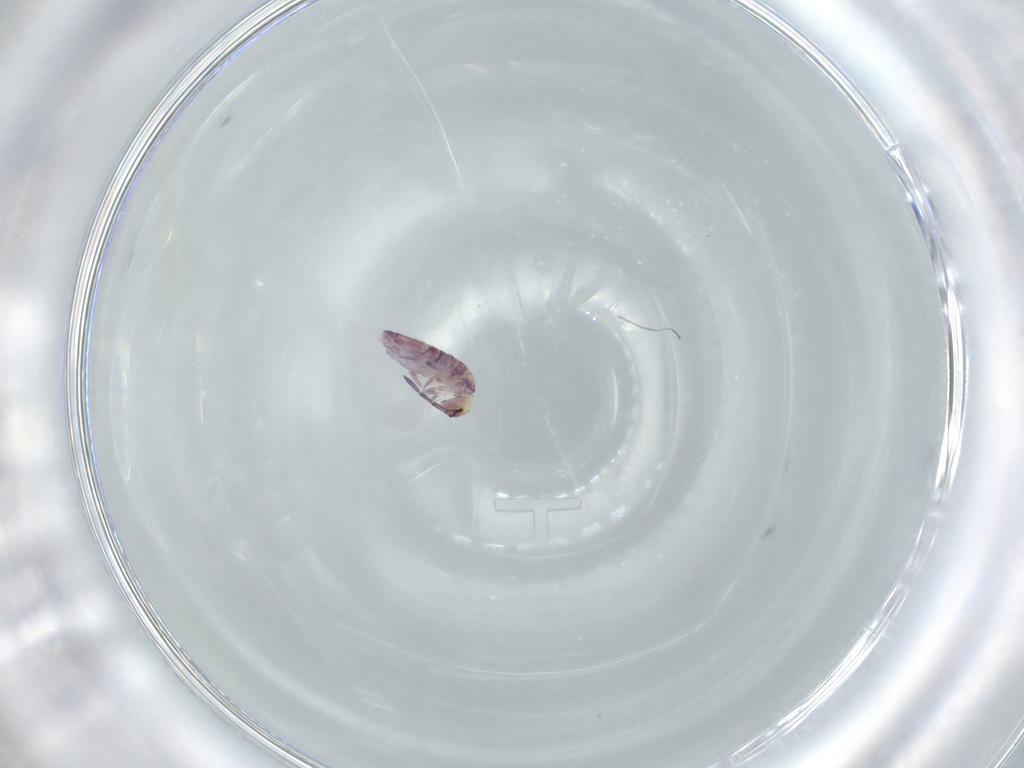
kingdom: Animalia
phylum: Arthropoda
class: Collembola
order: Entomobryomorpha
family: Entomobryidae
